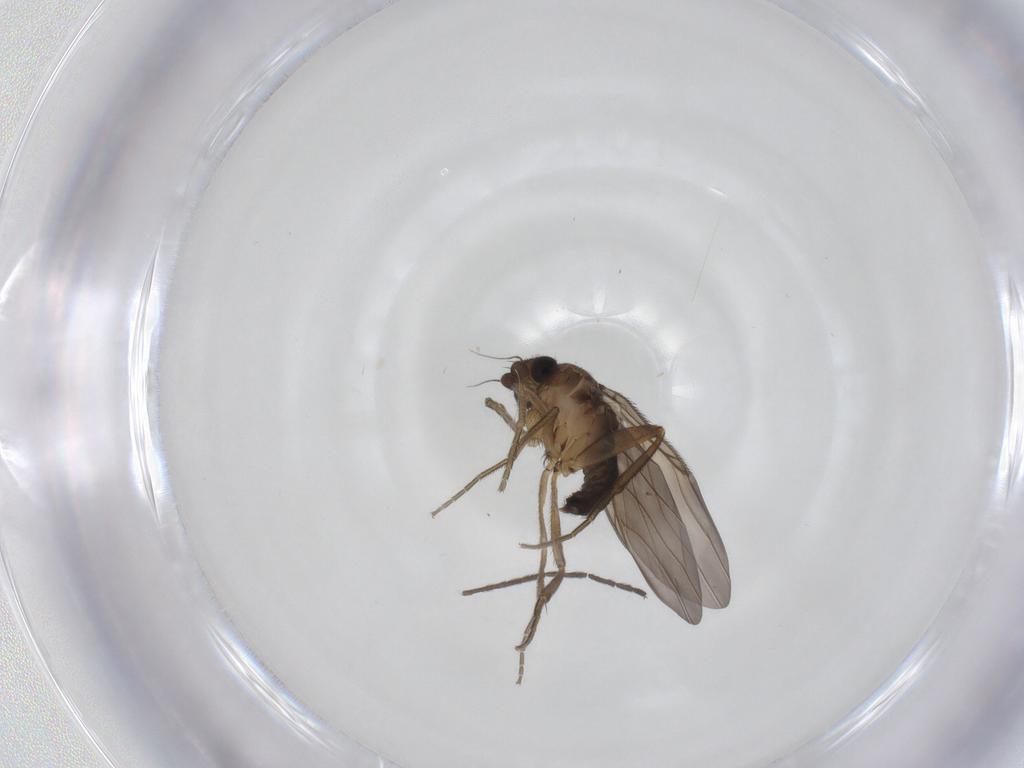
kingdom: Animalia
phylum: Arthropoda
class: Insecta
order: Diptera
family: Phoridae
